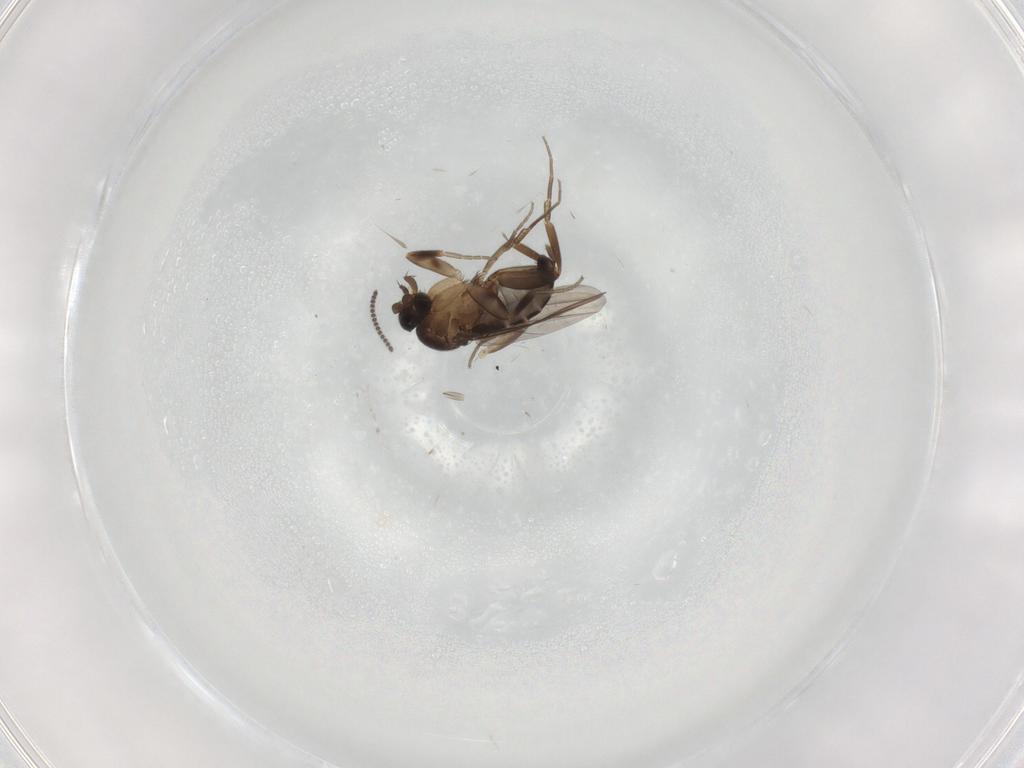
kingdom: Animalia
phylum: Arthropoda
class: Insecta
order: Diptera
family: Phoridae
